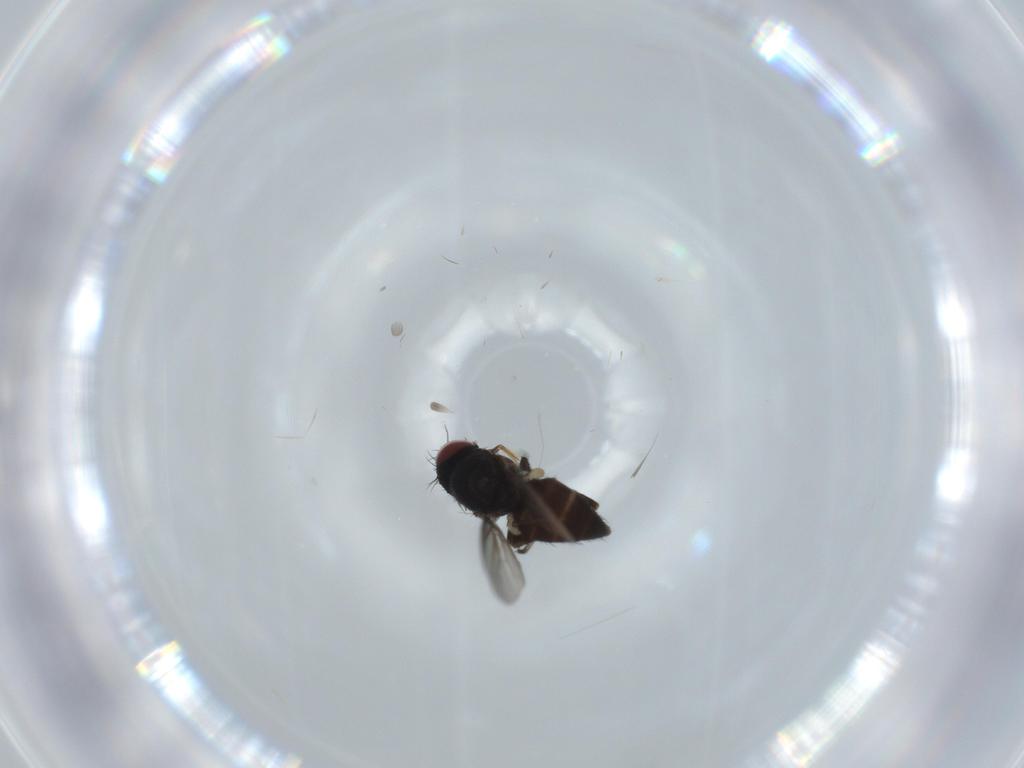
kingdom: Animalia
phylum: Arthropoda
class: Insecta
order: Diptera
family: Milichiidae
